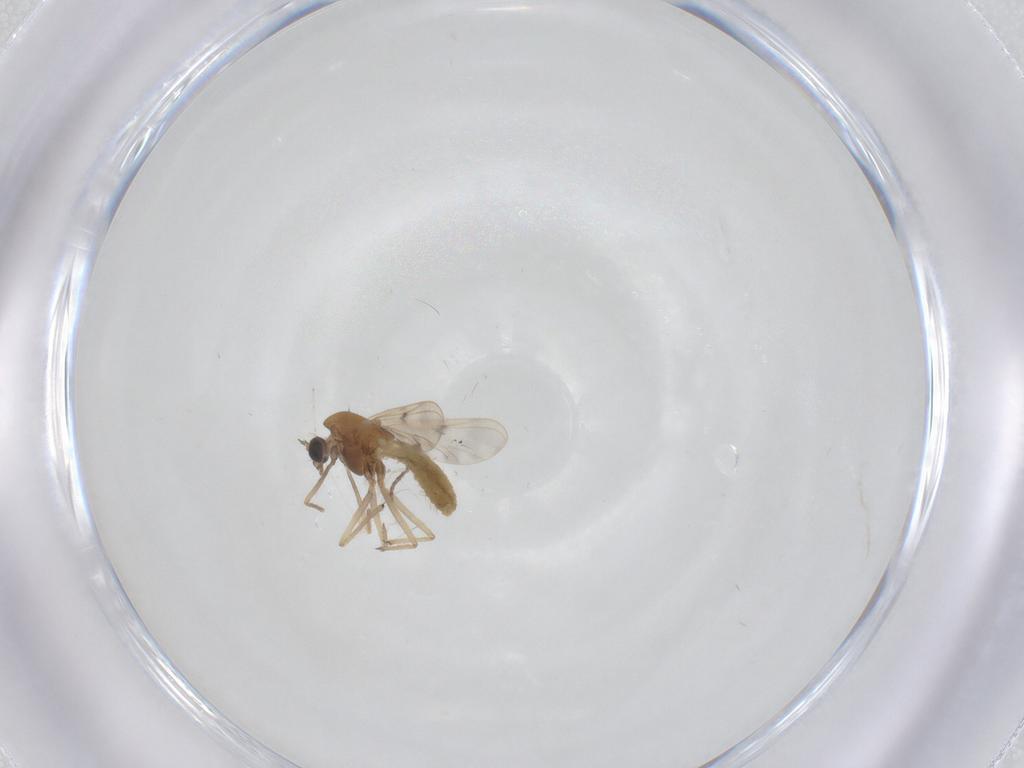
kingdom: Animalia
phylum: Arthropoda
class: Insecta
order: Diptera
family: Chironomidae
